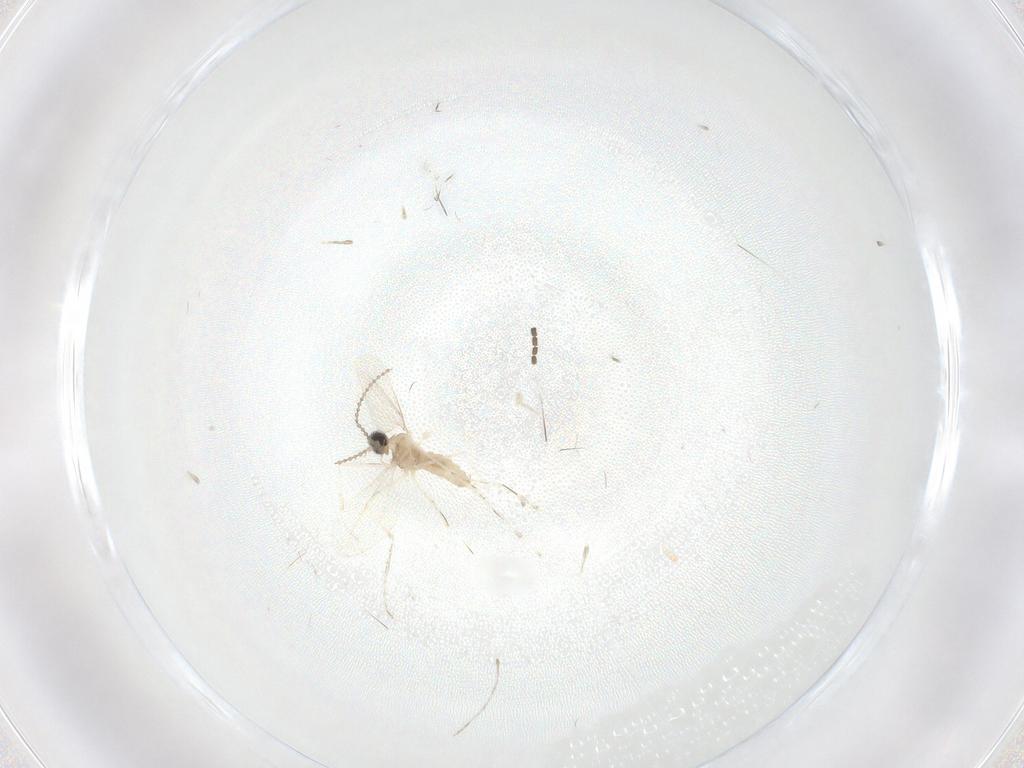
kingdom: Animalia
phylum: Arthropoda
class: Insecta
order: Diptera
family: Sciaridae
